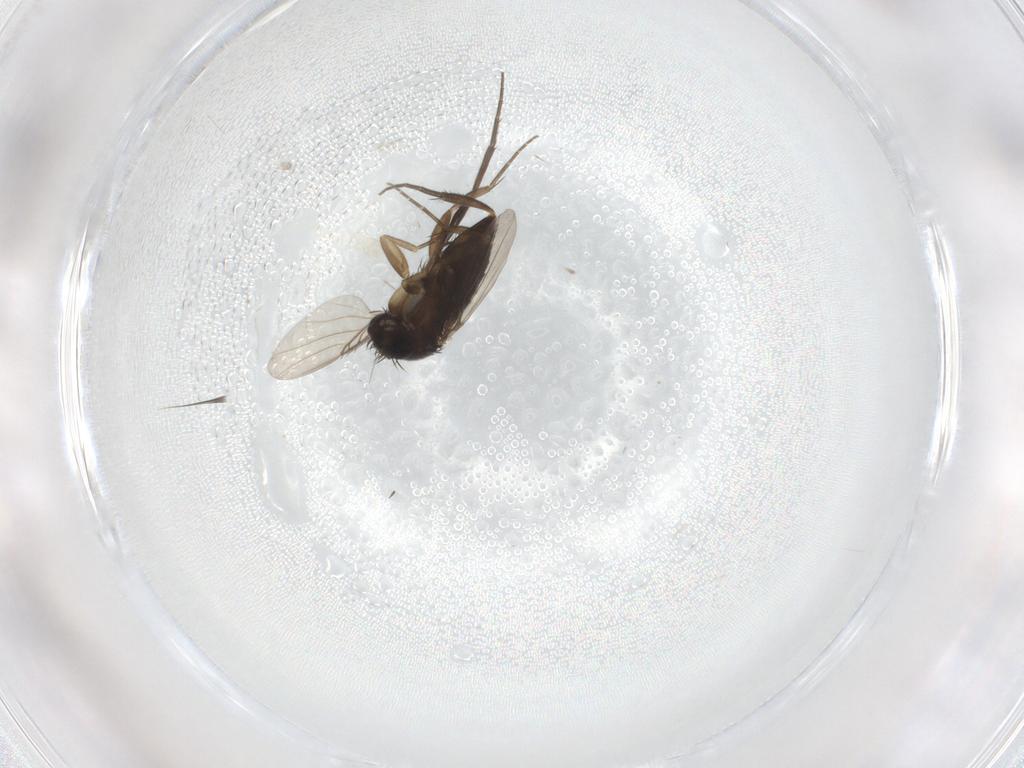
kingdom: Animalia
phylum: Arthropoda
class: Insecta
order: Diptera
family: Phoridae
